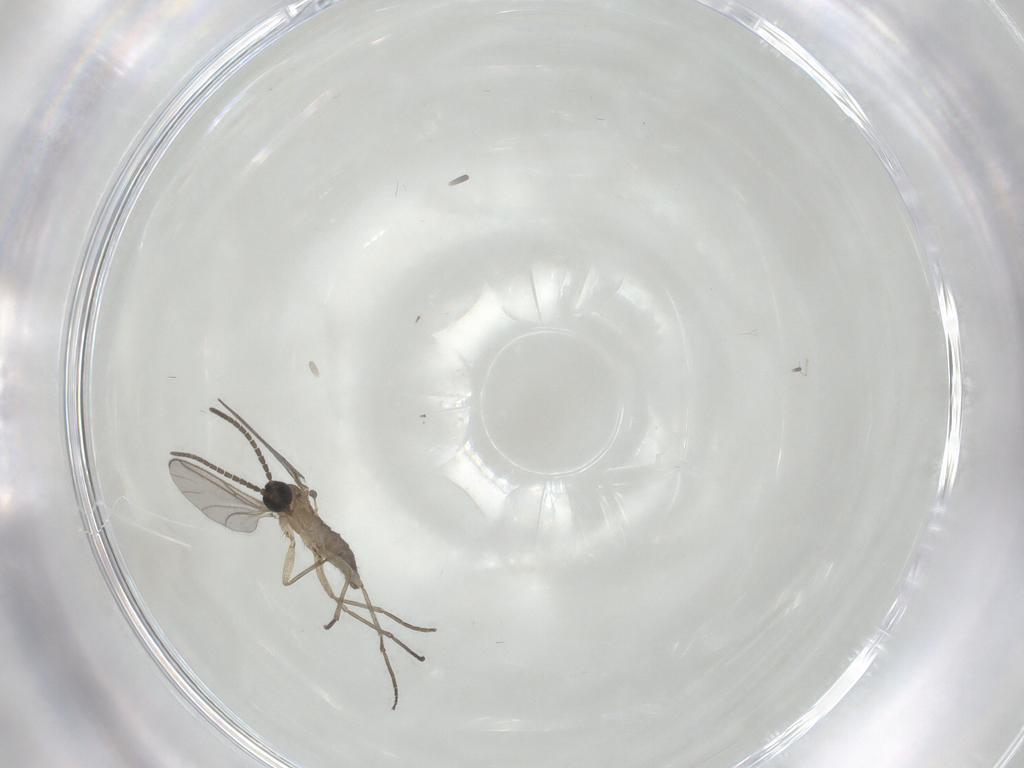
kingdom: Animalia
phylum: Arthropoda
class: Insecta
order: Diptera
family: Sciaridae
